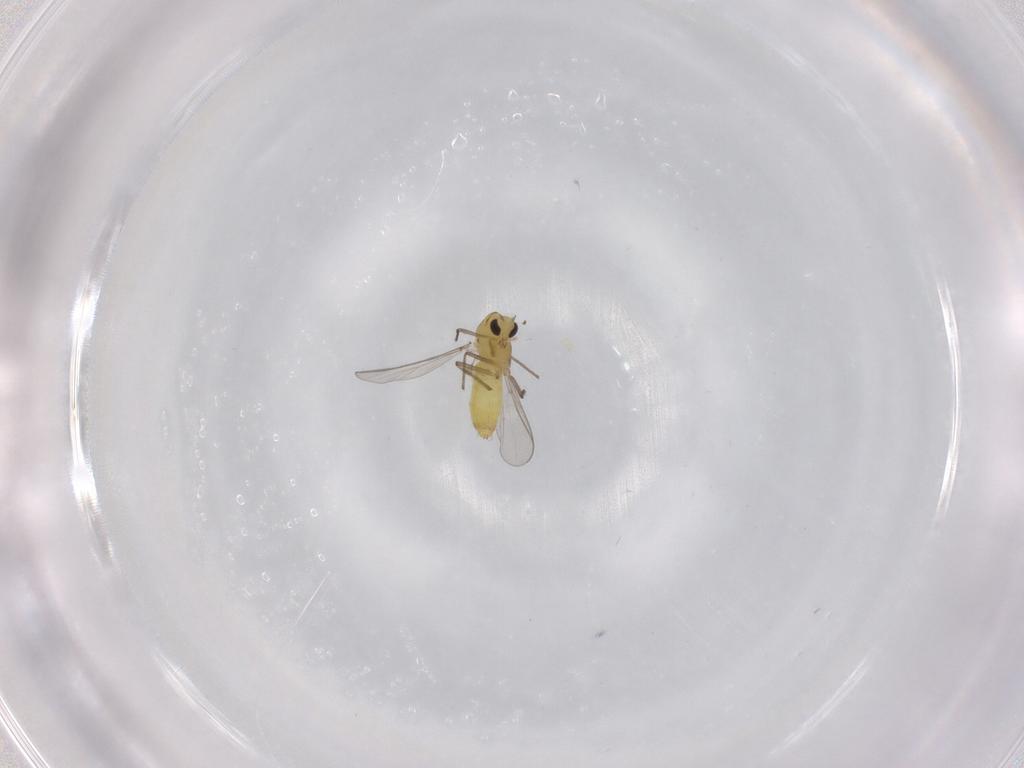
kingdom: Animalia
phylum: Arthropoda
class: Insecta
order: Diptera
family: Chironomidae
